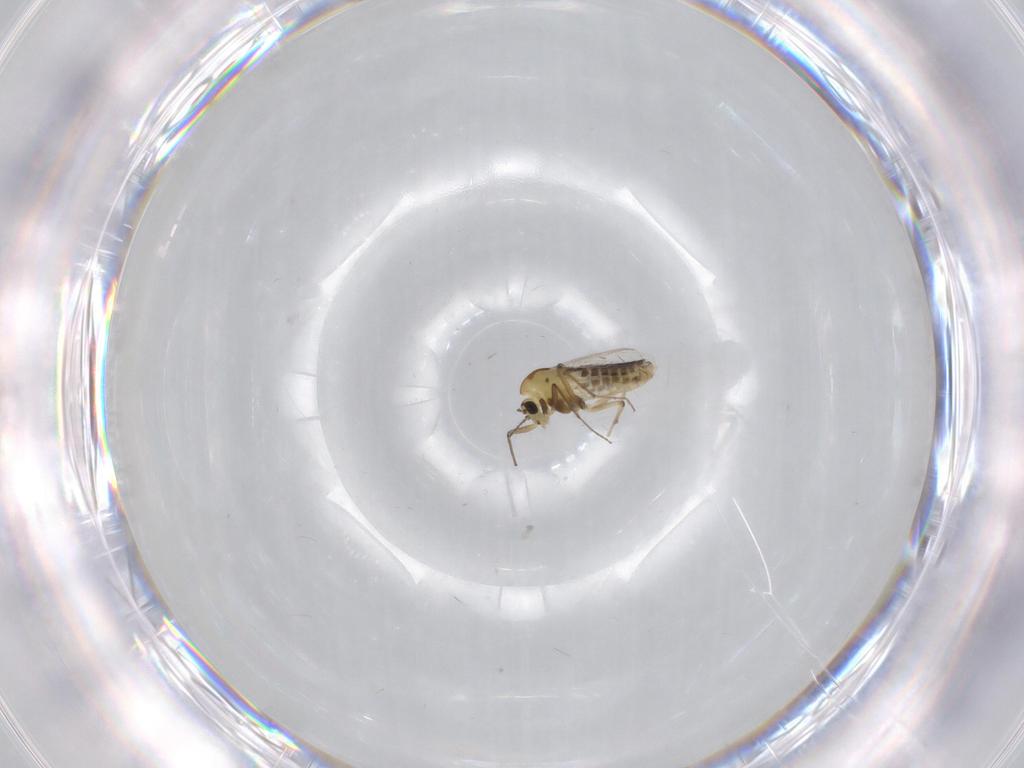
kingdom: Animalia
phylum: Arthropoda
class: Insecta
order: Diptera
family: Chironomidae
